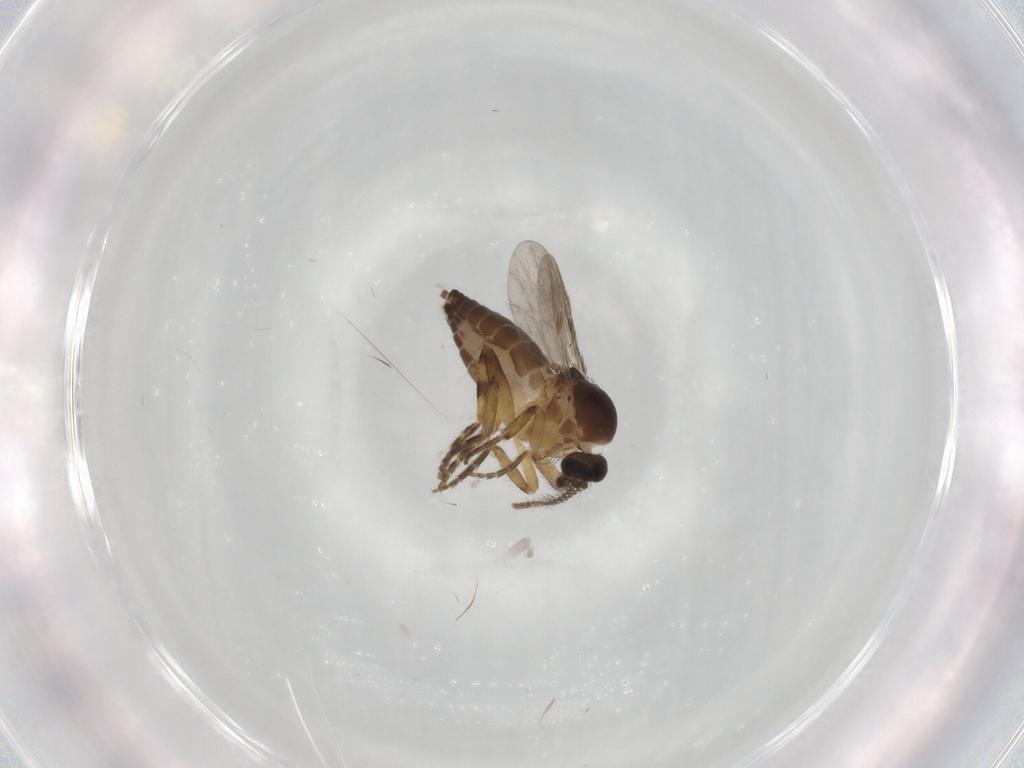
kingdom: Animalia
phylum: Arthropoda
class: Insecta
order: Diptera
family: Ceratopogonidae
